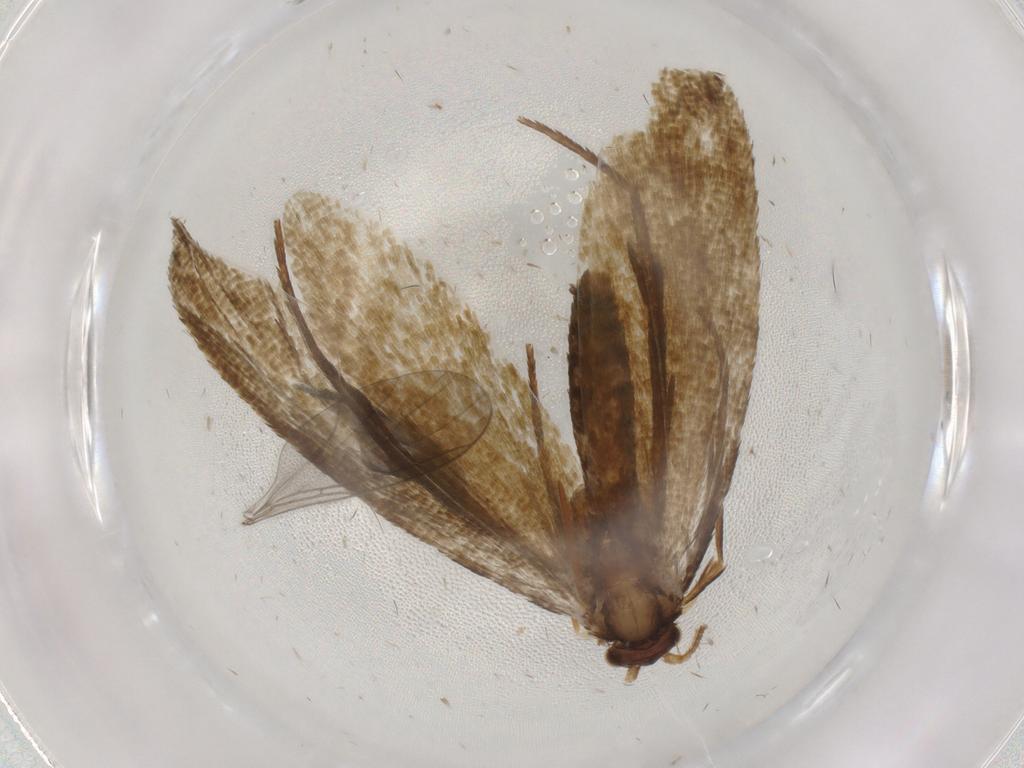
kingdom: Animalia
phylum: Arthropoda
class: Insecta
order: Lepidoptera
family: Tineidae
